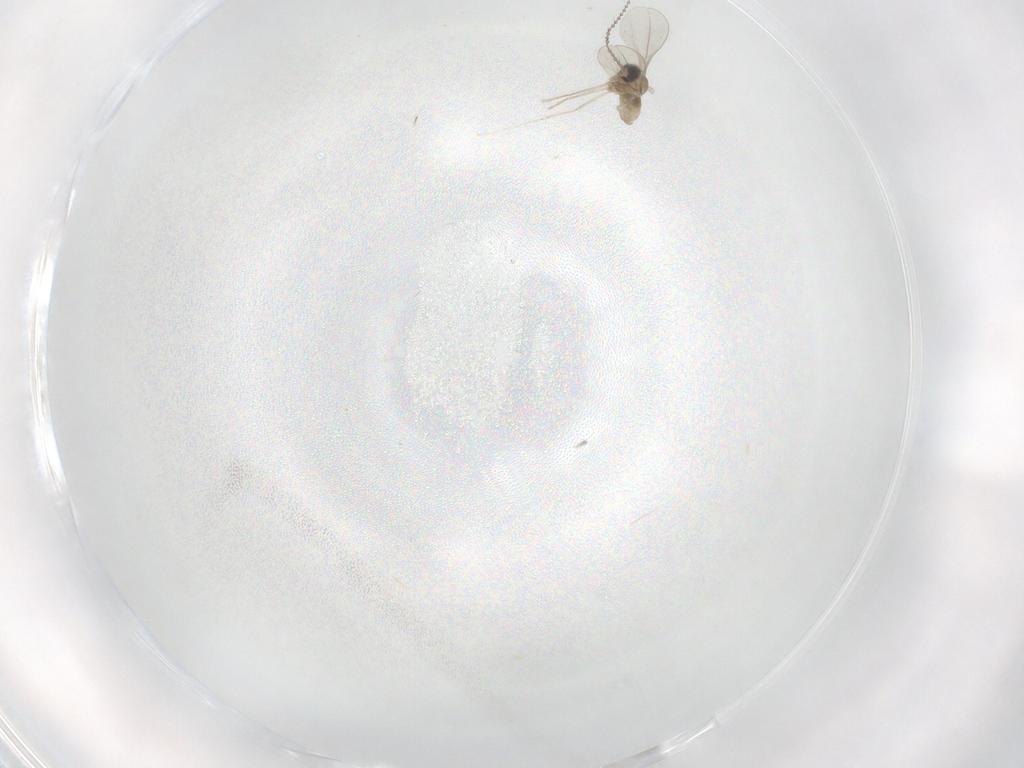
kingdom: Animalia
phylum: Arthropoda
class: Insecta
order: Diptera
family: Cecidomyiidae
